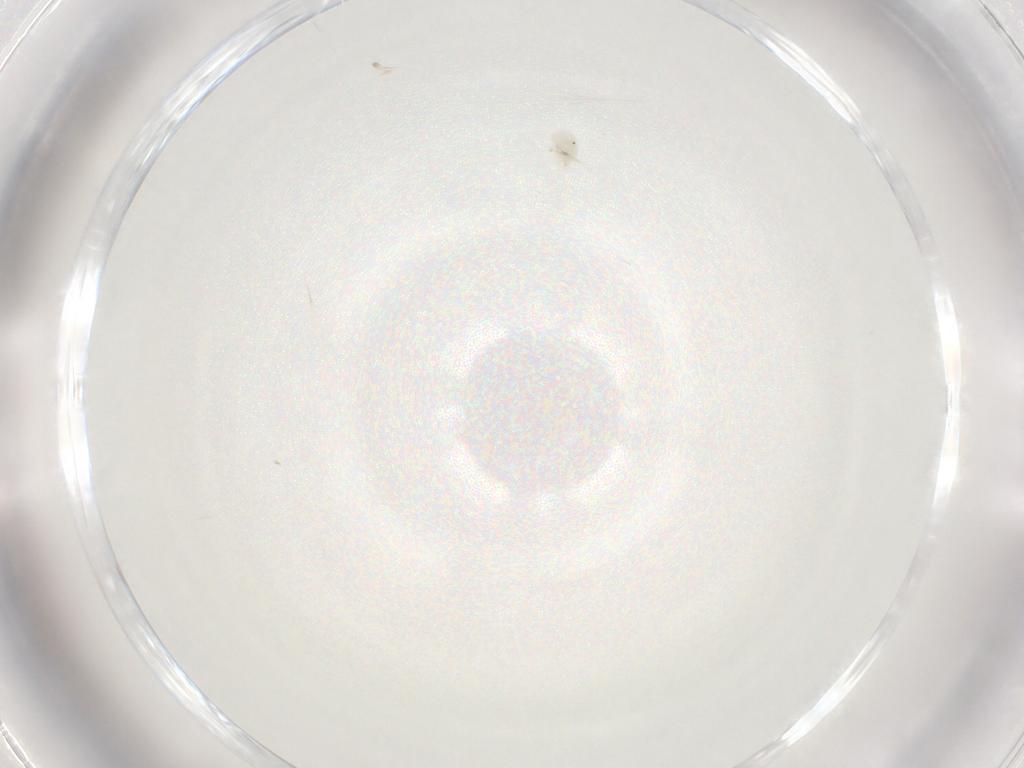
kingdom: Animalia
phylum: Arthropoda
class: Arachnida
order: Trombidiformes
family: Anystidae
